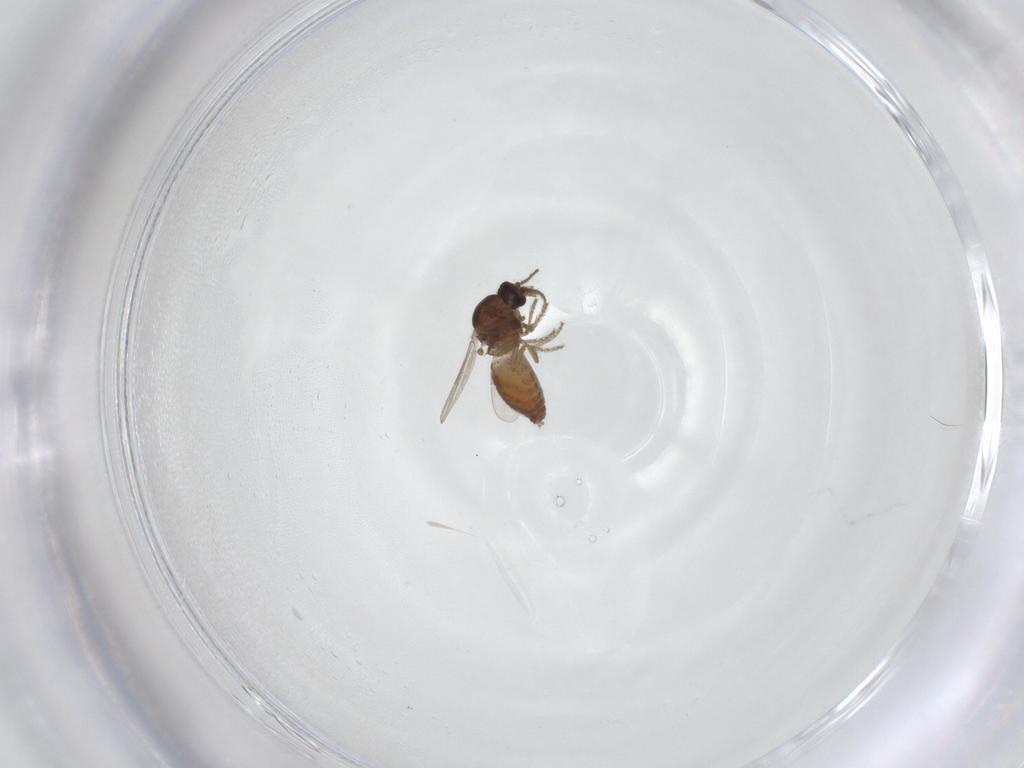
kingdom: Animalia
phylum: Arthropoda
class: Insecta
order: Diptera
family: Ceratopogonidae
